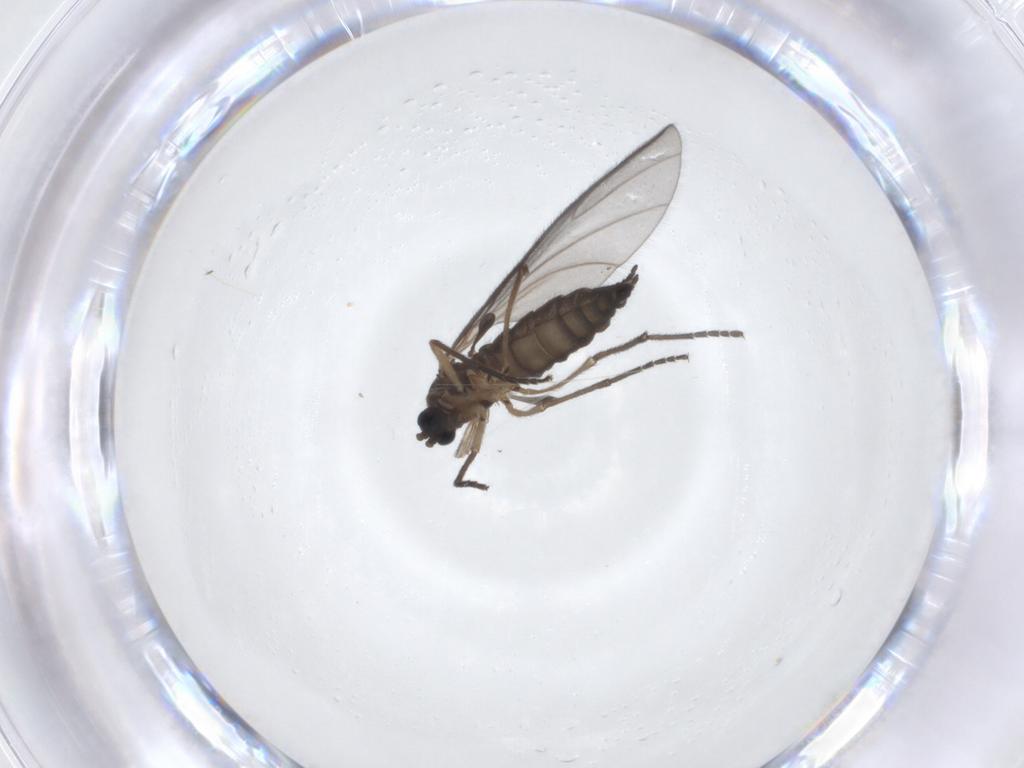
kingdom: Animalia
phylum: Arthropoda
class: Insecta
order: Diptera
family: Sciaridae
